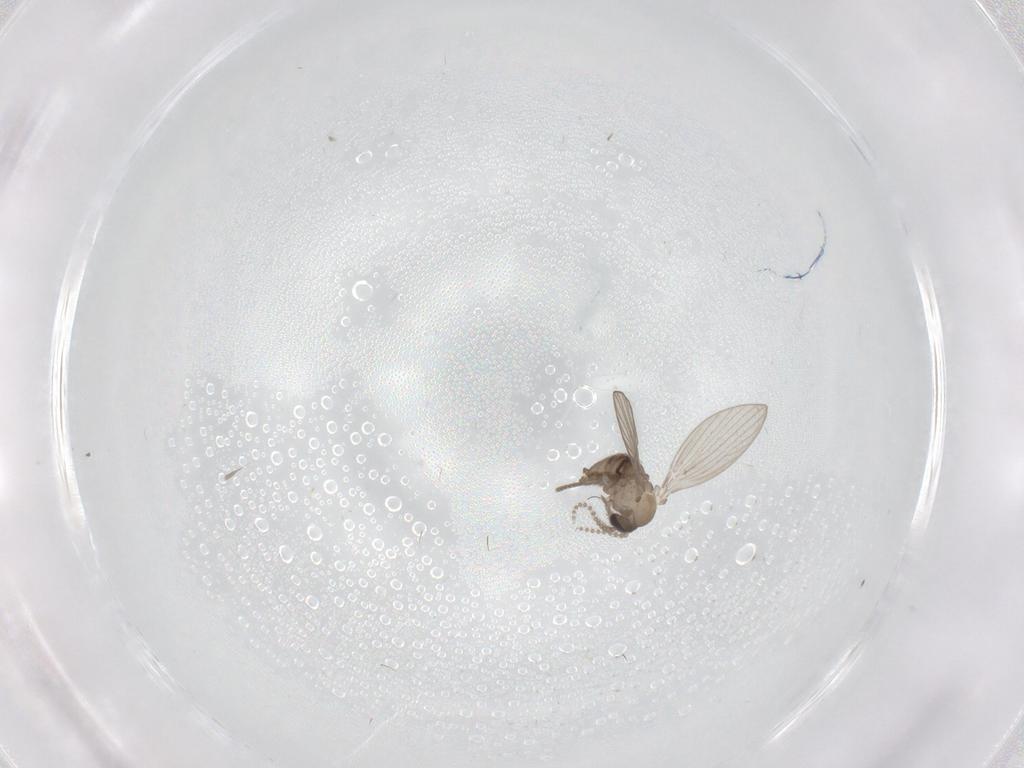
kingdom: Animalia
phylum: Arthropoda
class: Insecta
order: Diptera
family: Psychodidae
